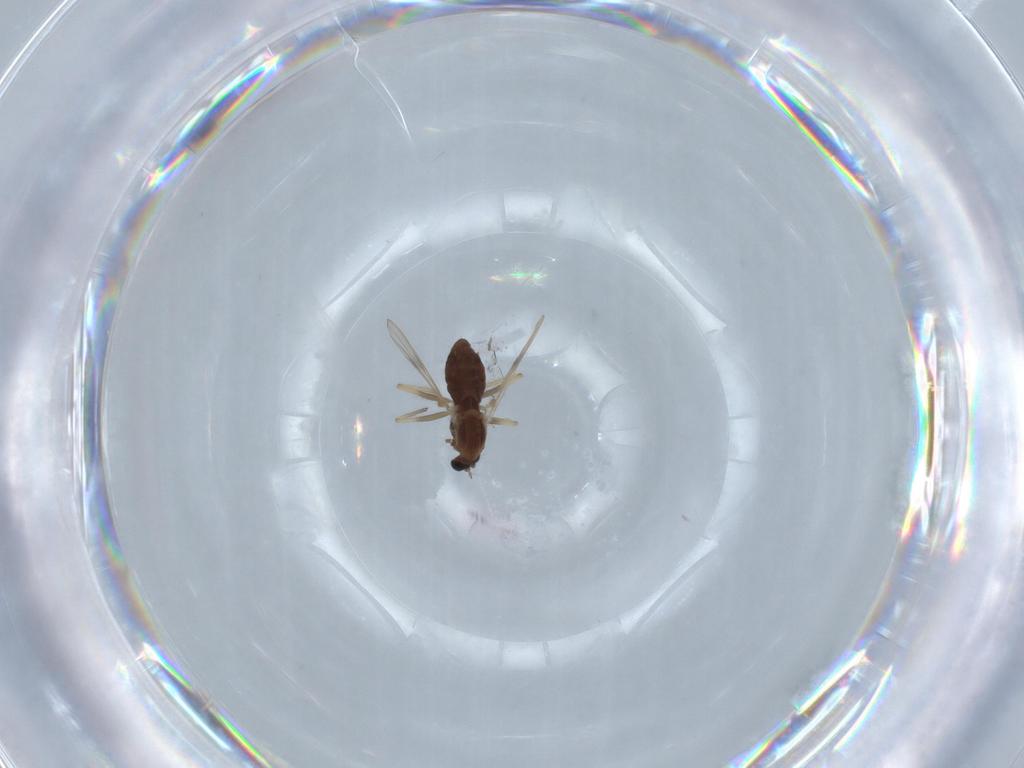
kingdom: Animalia
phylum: Arthropoda
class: Insecta
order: Diptera
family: Chironomidae
